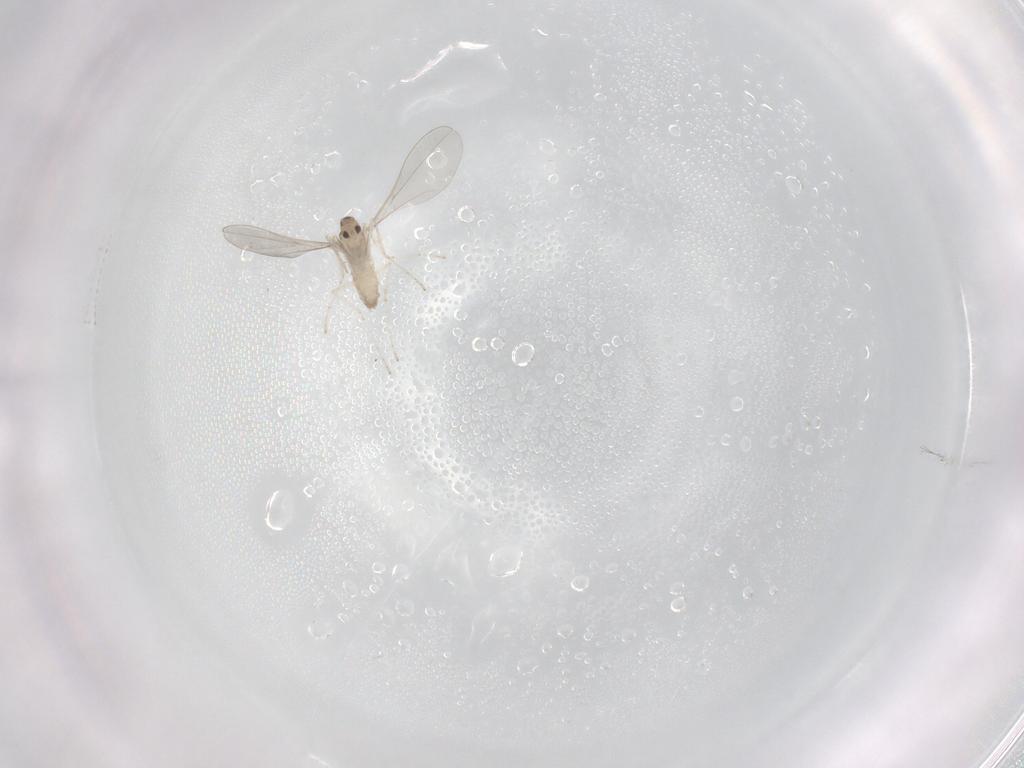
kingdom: Animalia
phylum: Arthropoda
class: Insecta
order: Diptera
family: Cecidomyiidae
